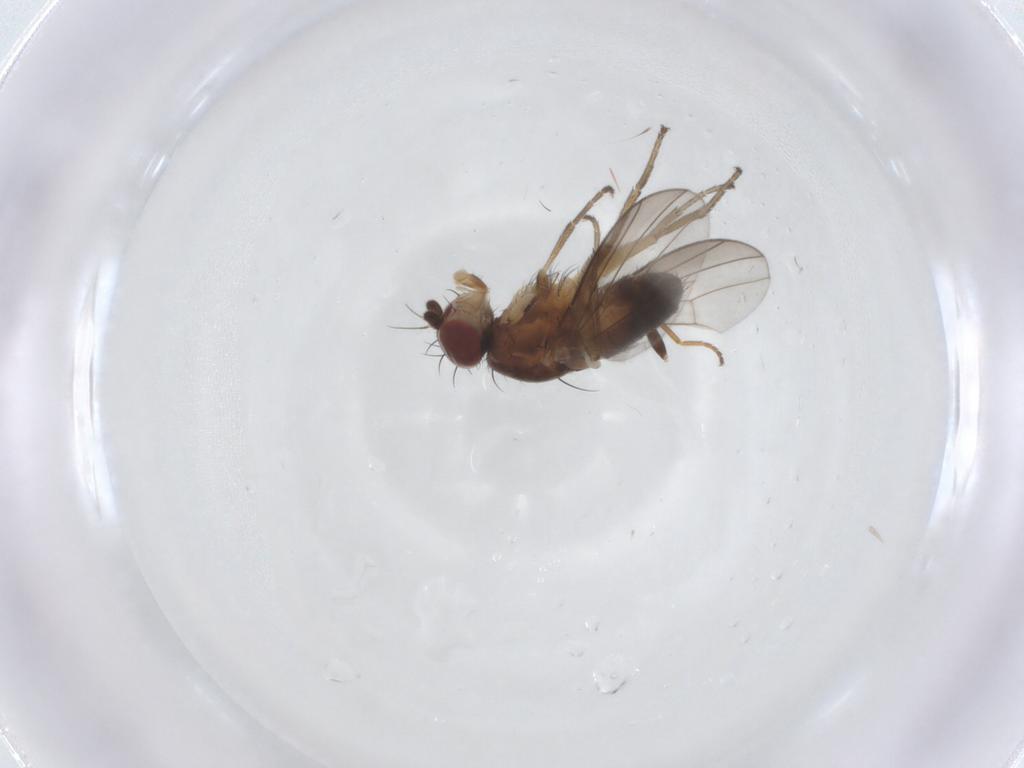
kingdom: Animalia
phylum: Arthropoda
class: Insecta
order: Diptera
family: Heleomyzidae
